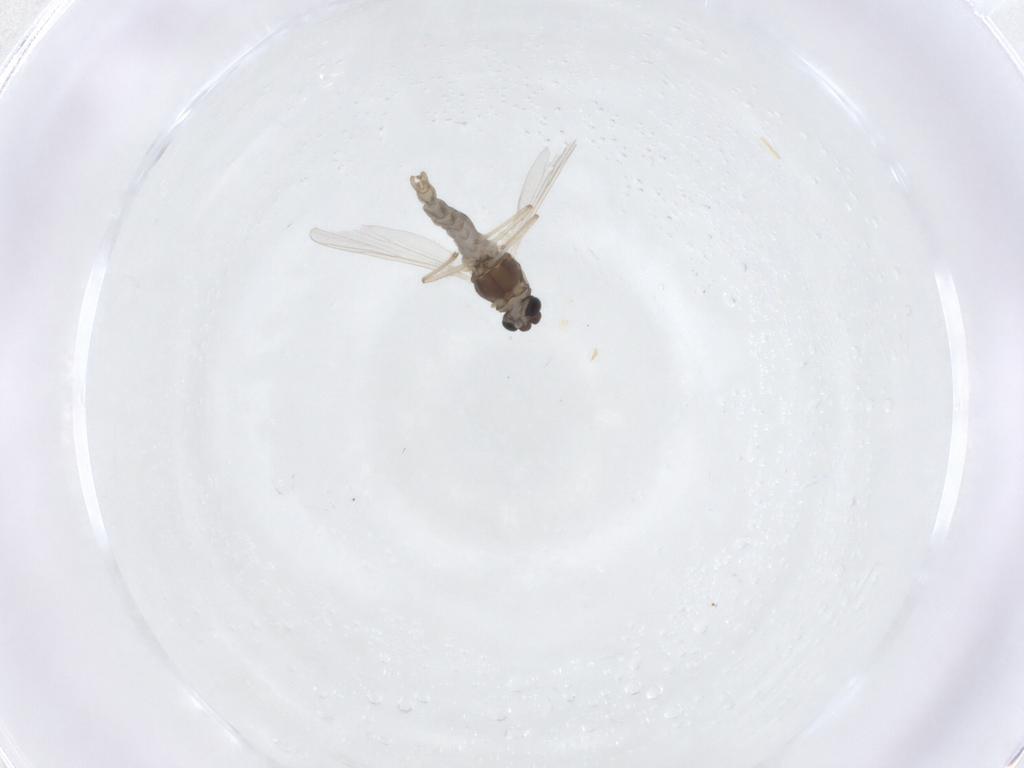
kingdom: Animalia
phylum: Arthropoda
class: Insecta
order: Diptera
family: Chironomidae
